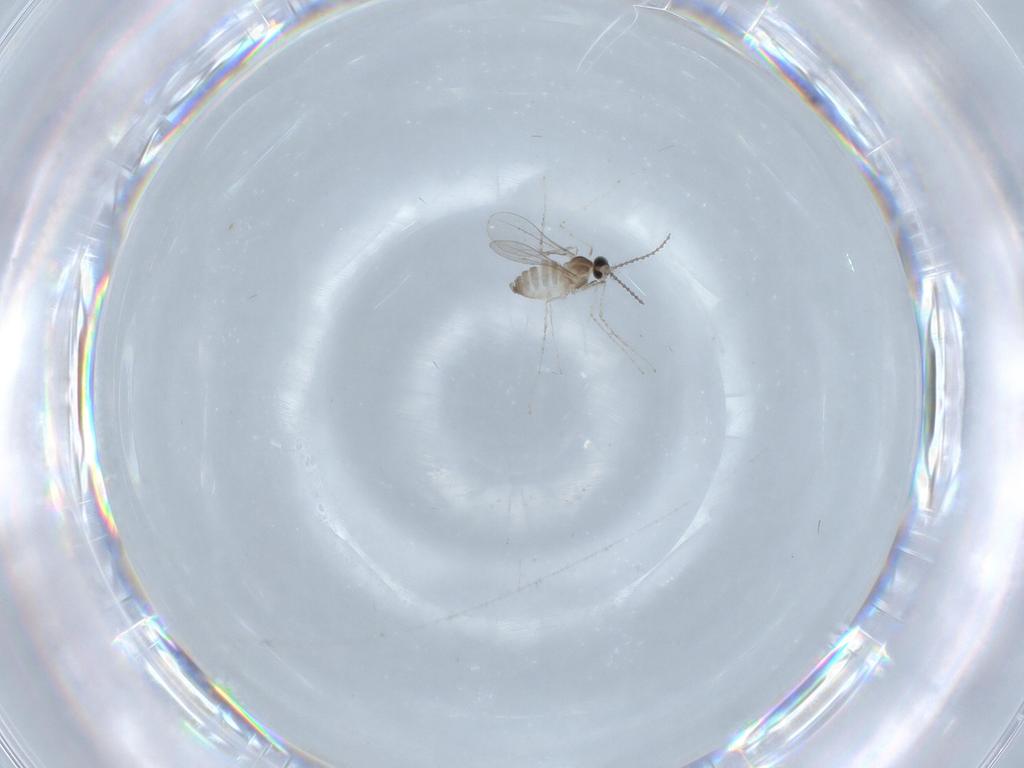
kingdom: Animalia
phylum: Arthropoda
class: Insecta
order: Diptera
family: Cecidomyiidae
